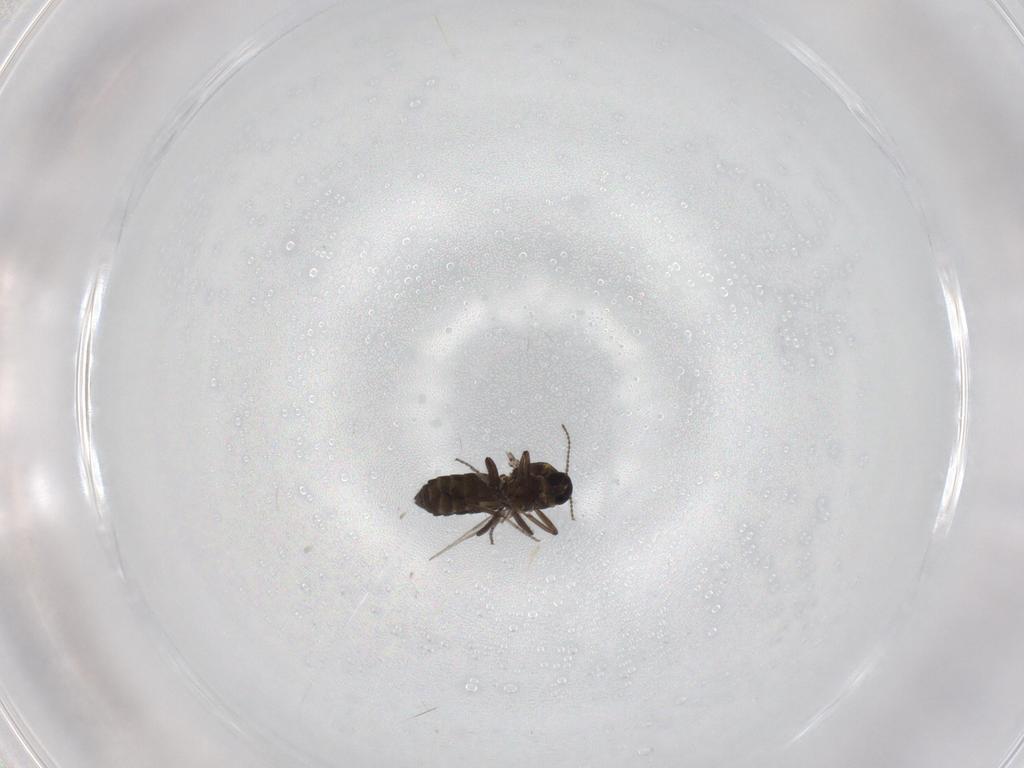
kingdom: Animalia
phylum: Arthropoda
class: Insecta
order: Diptera
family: Ceratopogonidae
